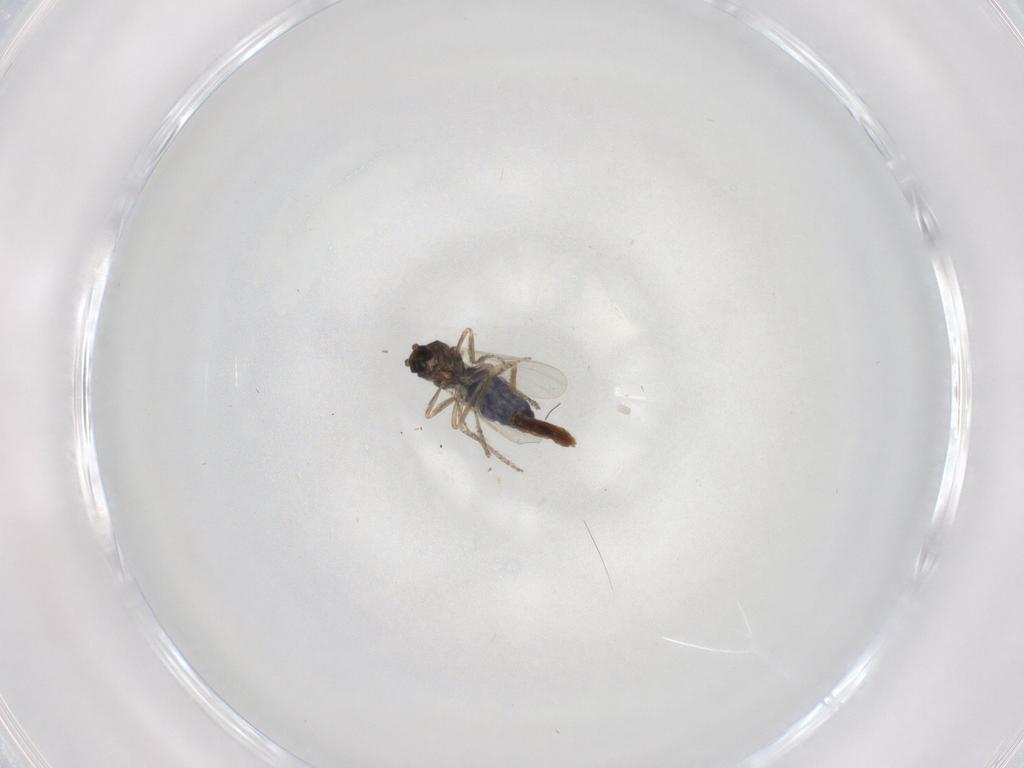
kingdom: Animalia
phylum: Arthropoda
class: Insecta
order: Diptera
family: Ceratopogonidae
